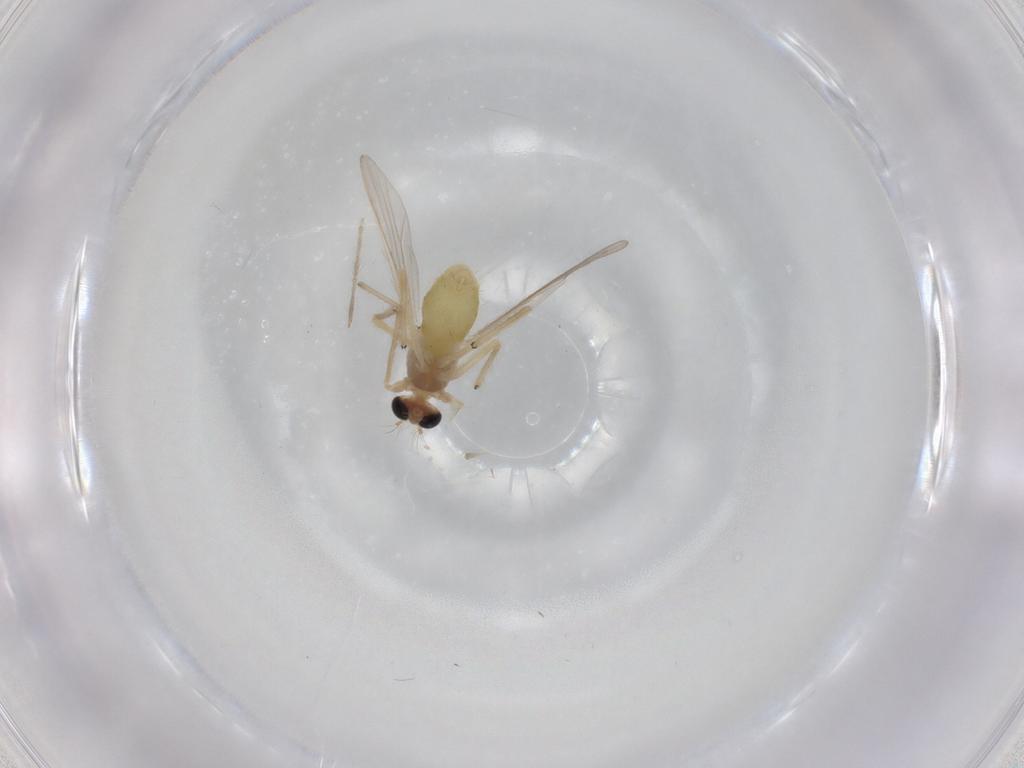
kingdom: Animalia
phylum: Arthropoda
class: Insecta
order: Diptera
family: Chironomidae
